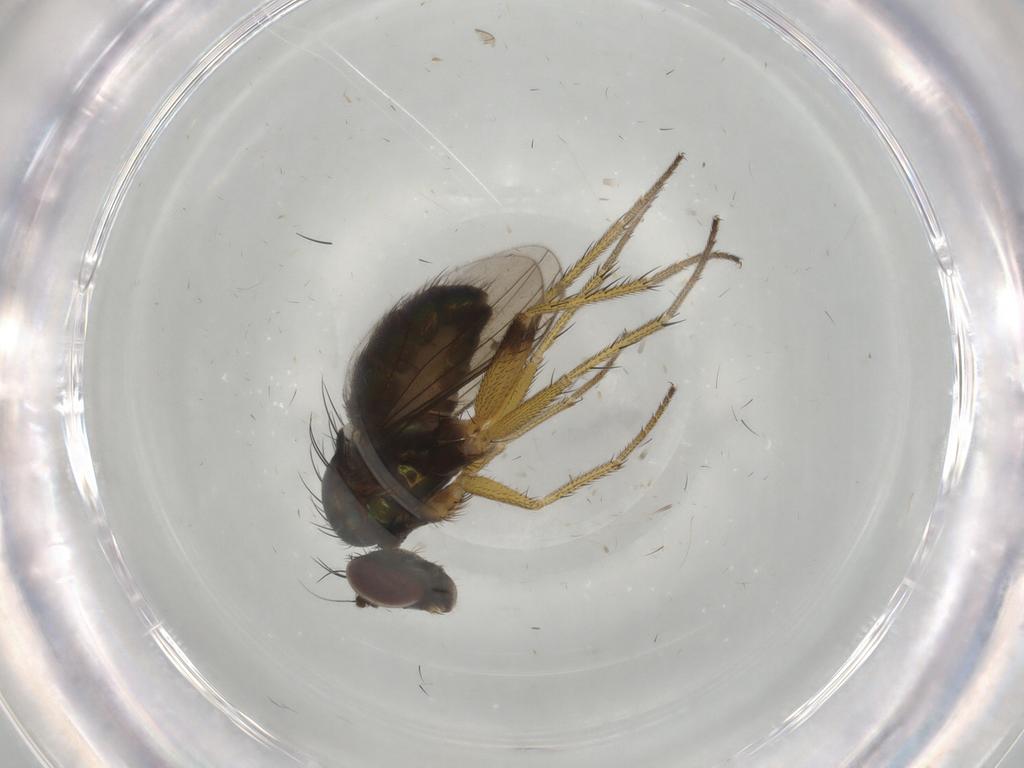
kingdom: Animalia
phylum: Arthropoda
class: Insecta
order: Diptera
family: Dolichopodidae
